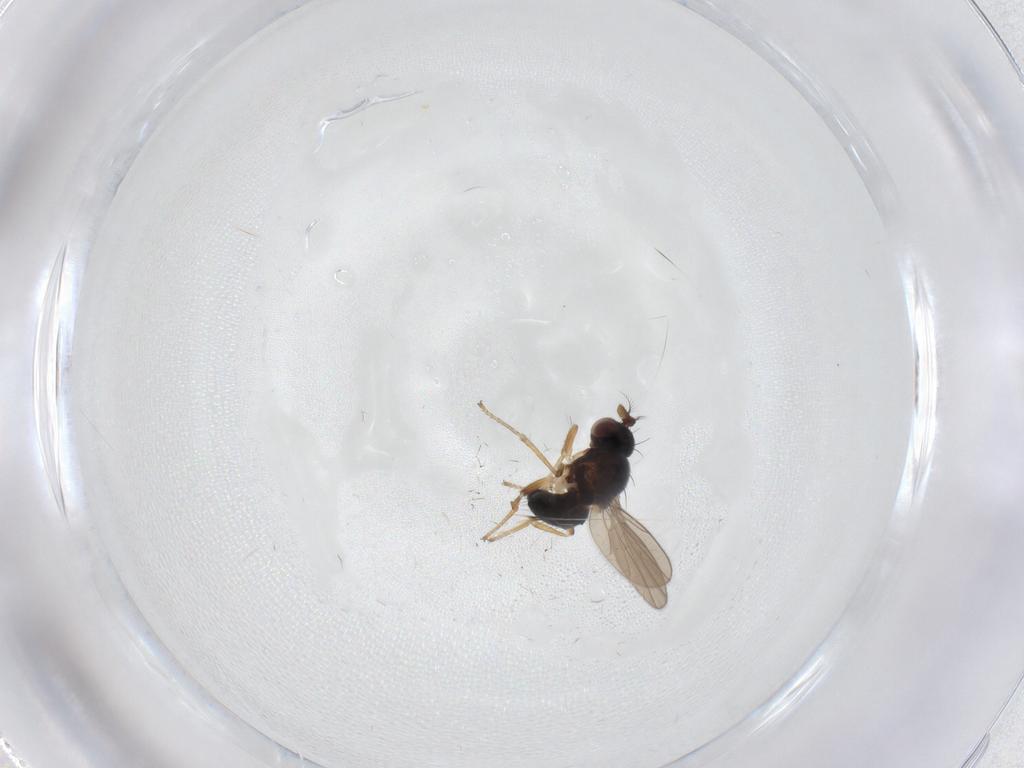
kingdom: Animalia
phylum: Arthropoda
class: Insecta
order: Diptera
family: Ephydridae
